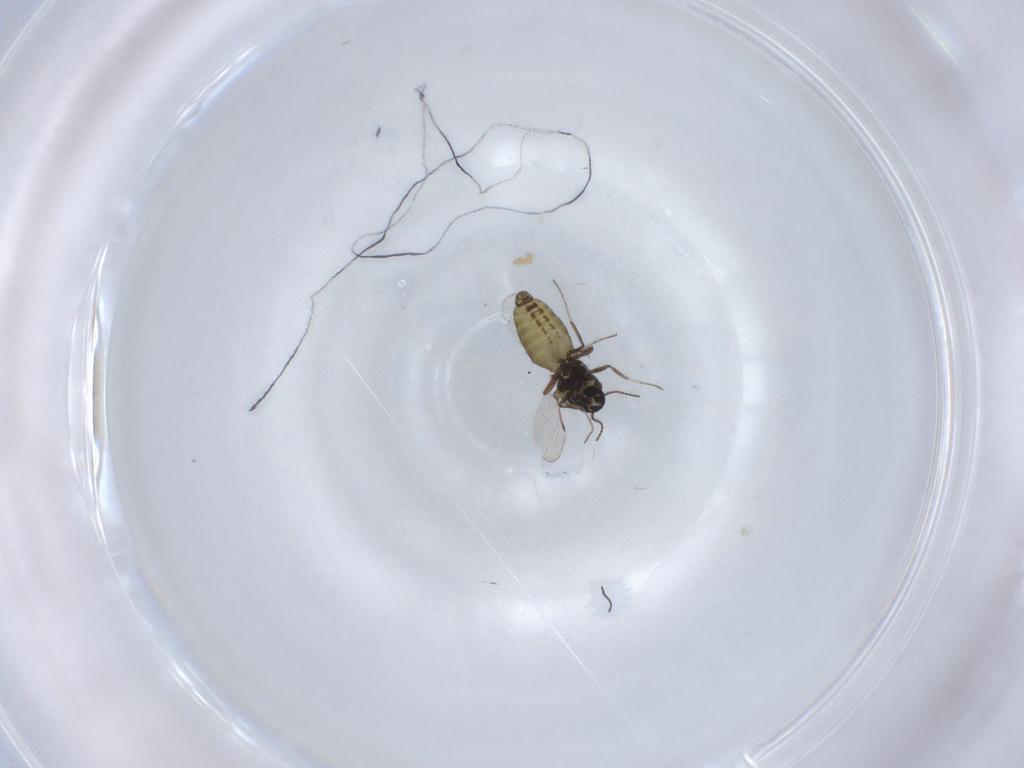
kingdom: Animalia
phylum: Arthropoda
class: Insecta
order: Diptera
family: Ceratopogonidae
